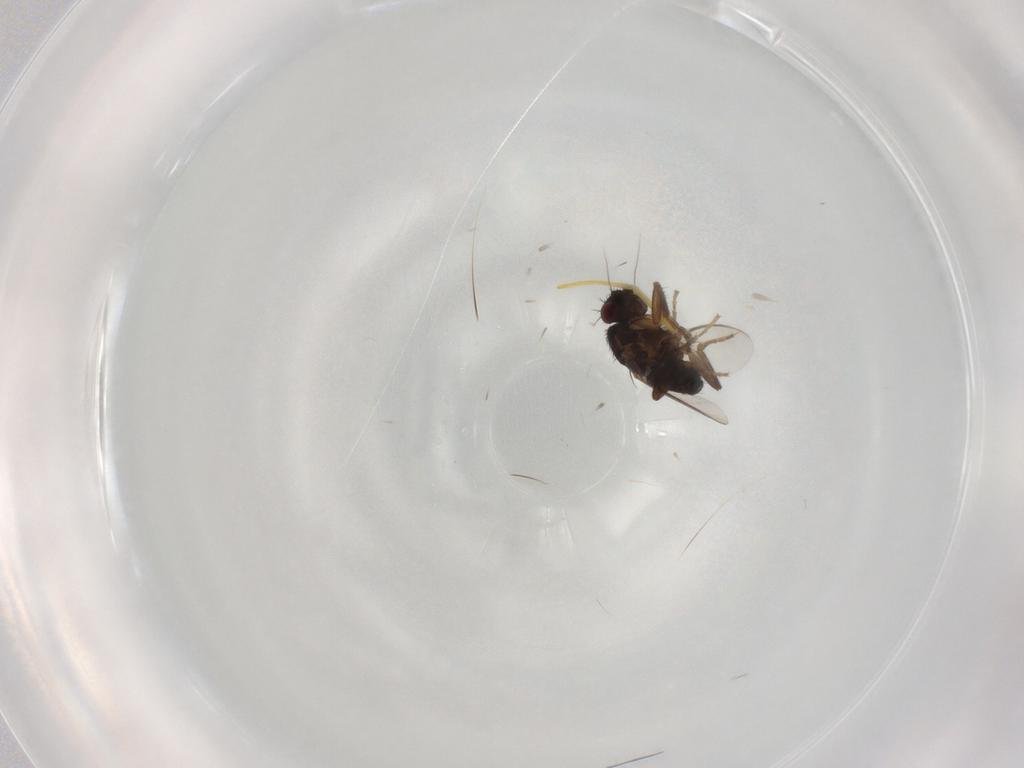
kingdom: Animalia
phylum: Arthropoda
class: Insecta
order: Diptera
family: Sphaeroceridae
